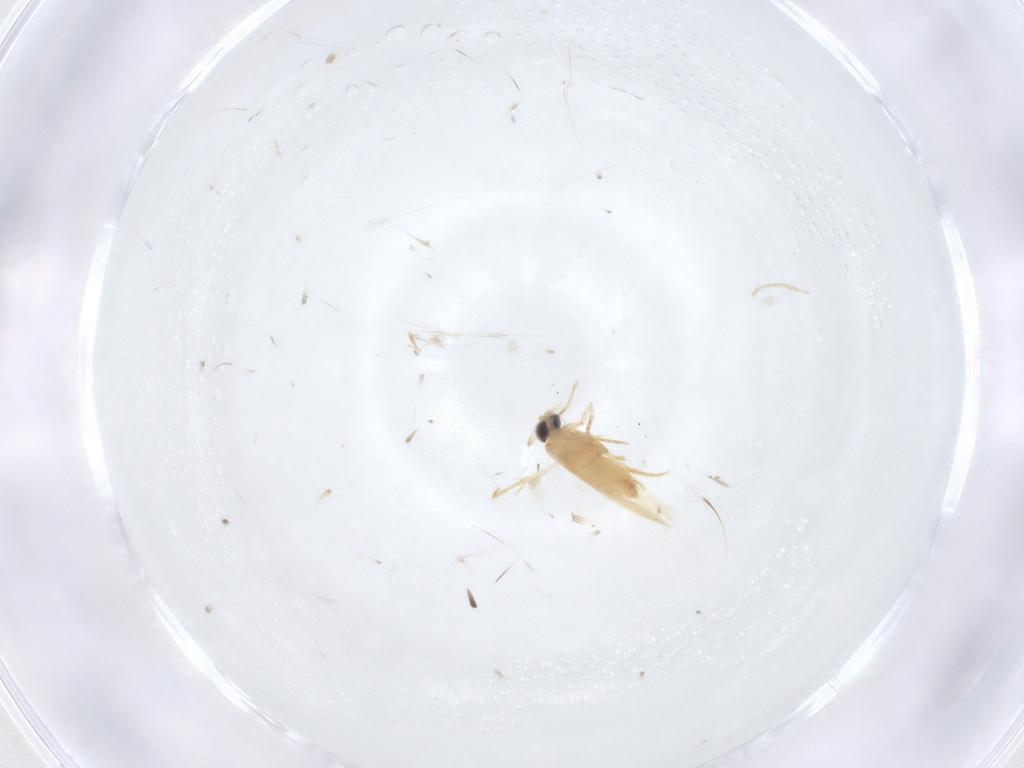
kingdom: Animalia
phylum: Arthropoda
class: Insecta
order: Lepidoptera
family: Crambidae
